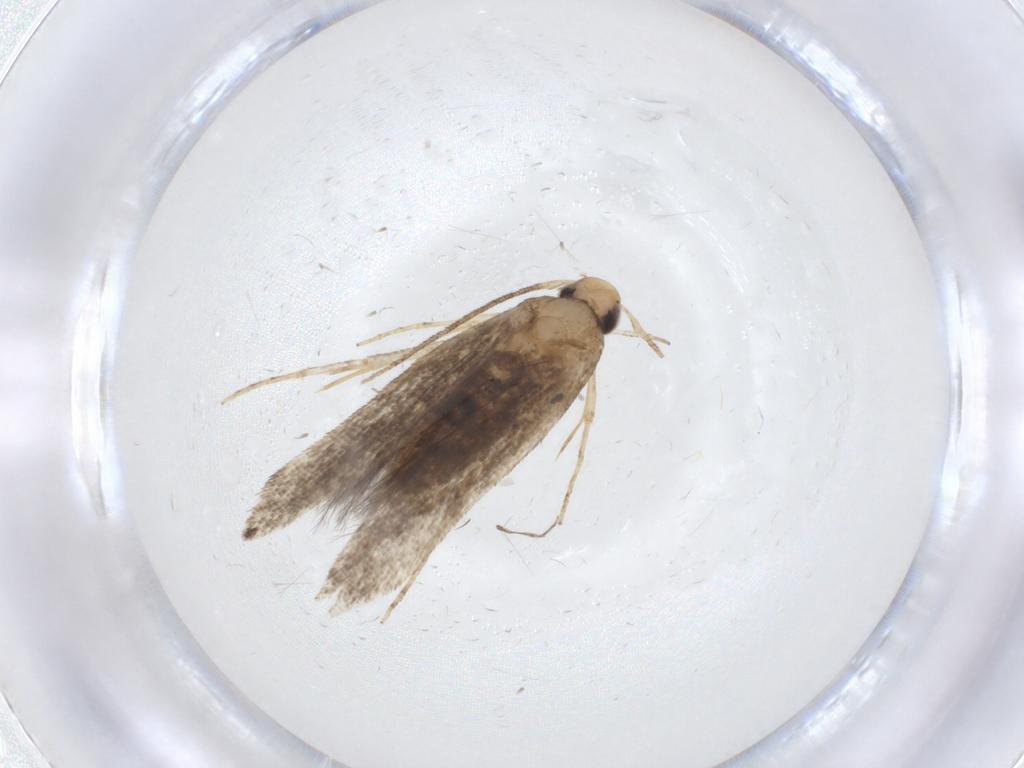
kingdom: Animalia
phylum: Arthropoda
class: Insecta
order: Lepidoptera
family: Cosmopterigidae
